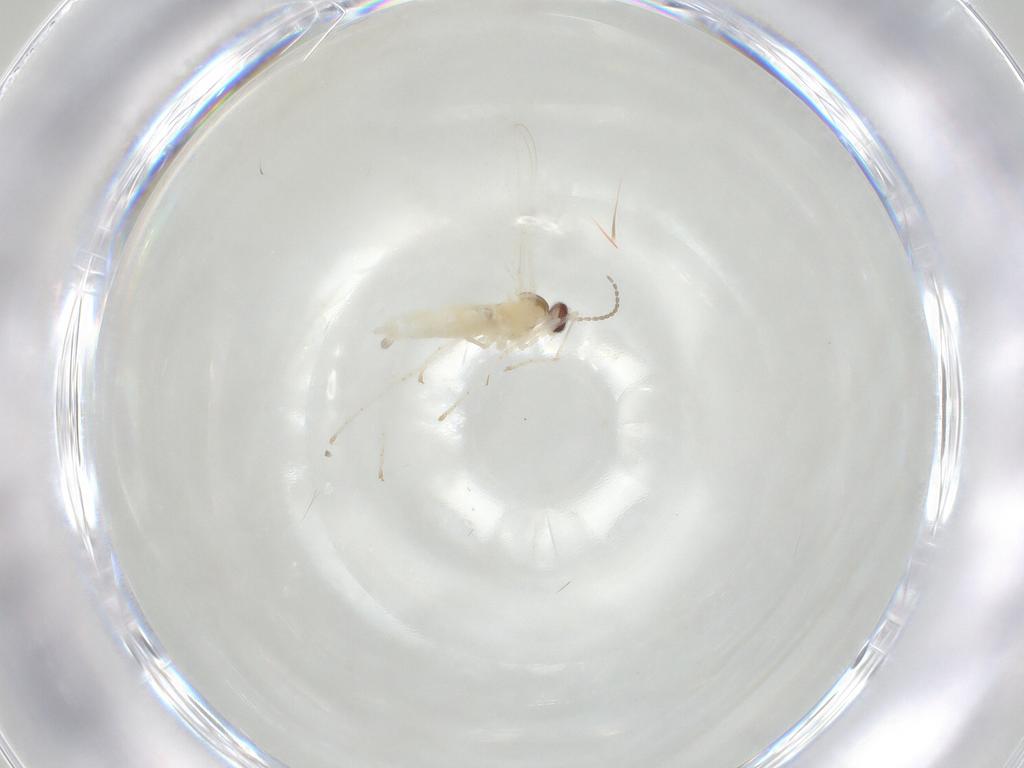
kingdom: Animalia
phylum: Arthropoda
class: Insecta
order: Diptera
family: Cecidomyiidae
